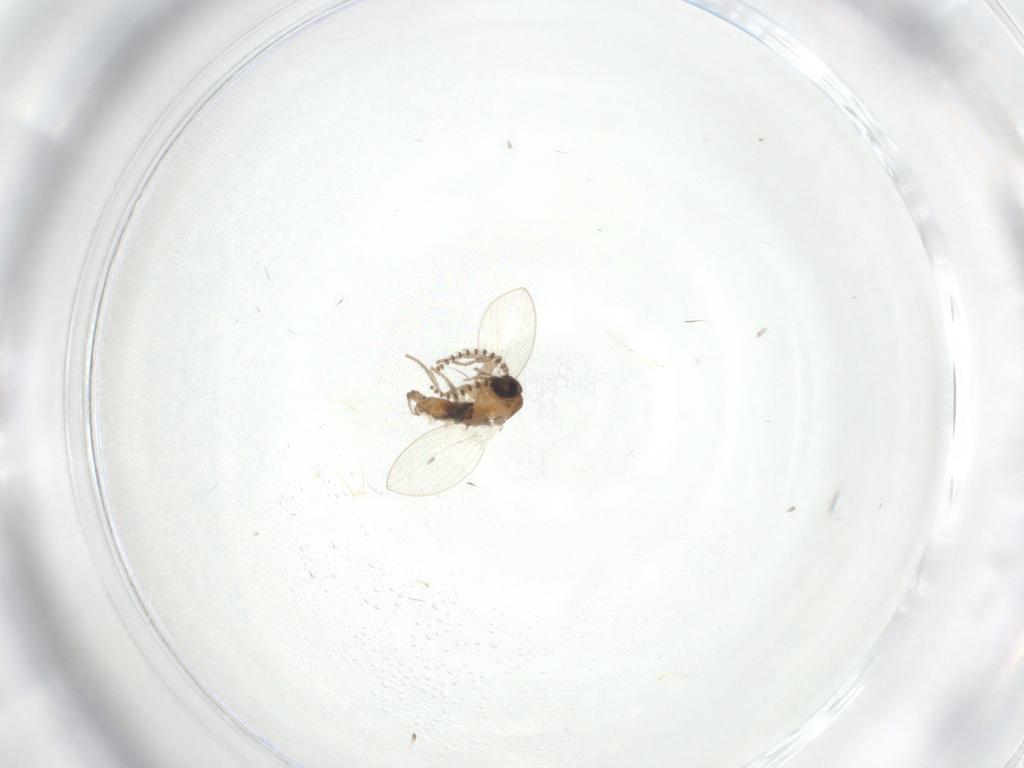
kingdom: Animalia
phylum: Arthropoda
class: Insecta
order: Diptera
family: Psychodidae
